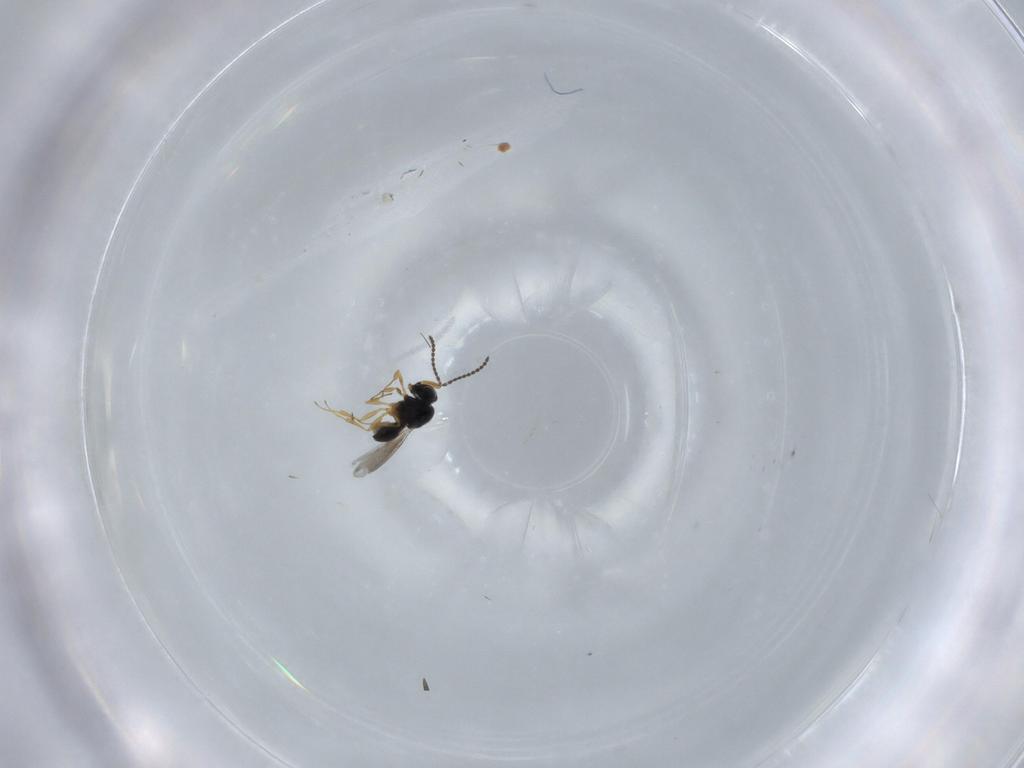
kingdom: Animalia
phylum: Arthropoda
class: Insecta
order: Hymenoptera
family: Scelionidae
